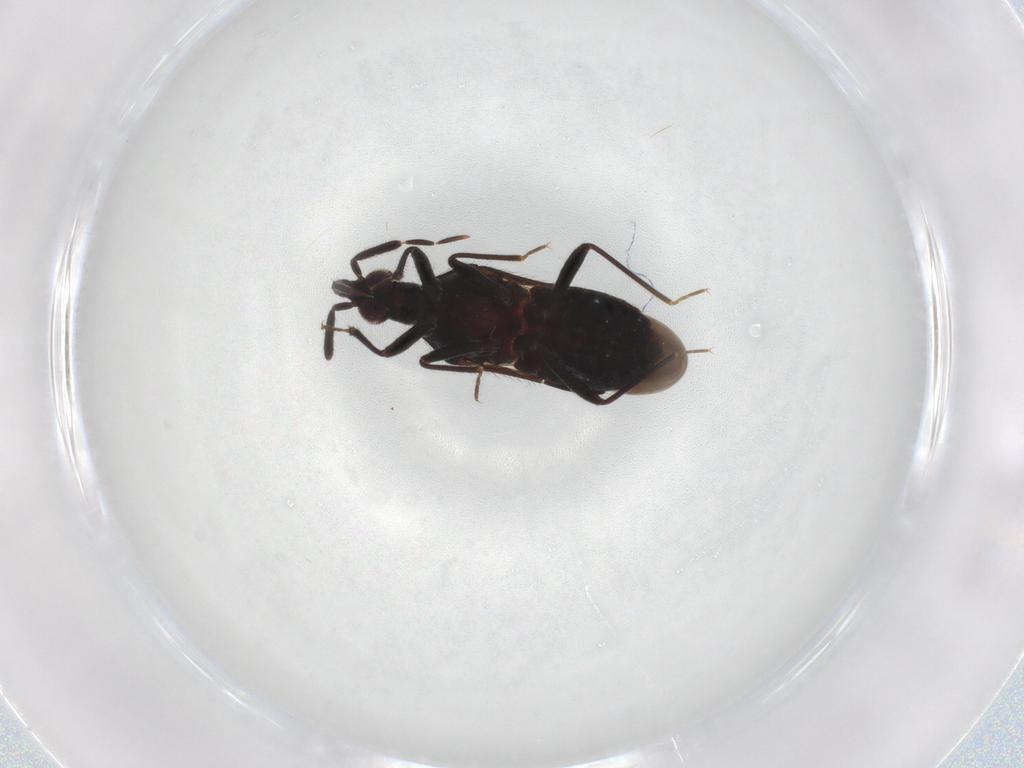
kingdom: Animalia
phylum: Arthropoda
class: Insecta
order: Hemiptera
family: Anthocoridae
